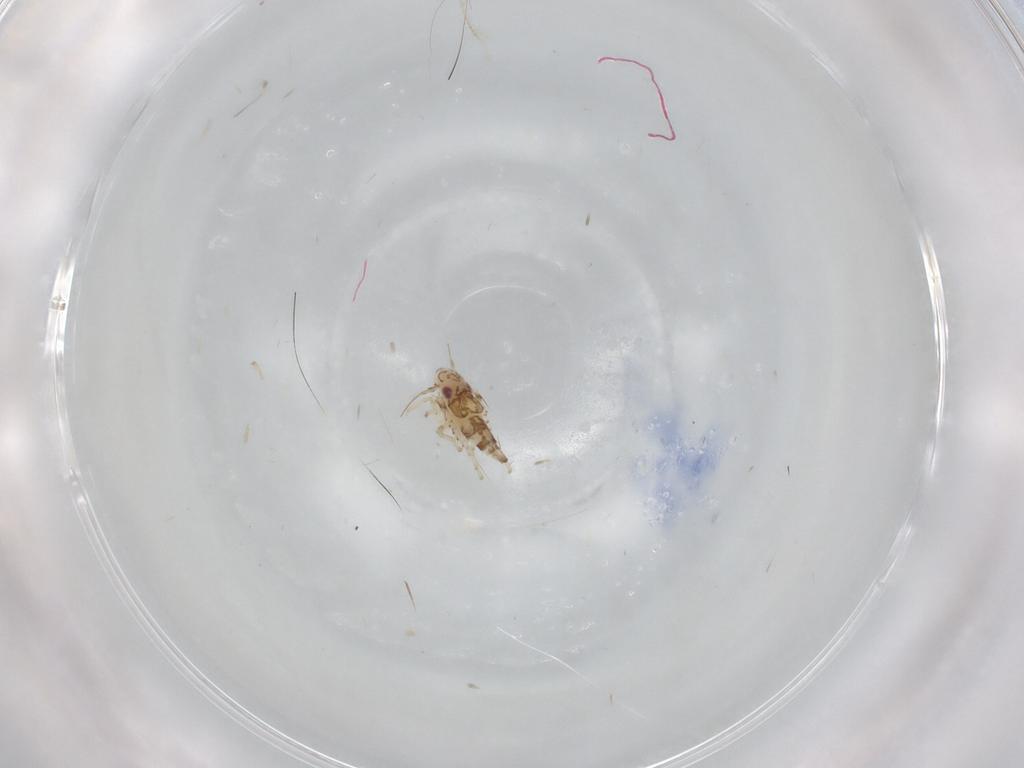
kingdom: Animalia
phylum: Arthropoda
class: Insecta
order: Hemiptera
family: Cicadellidae
